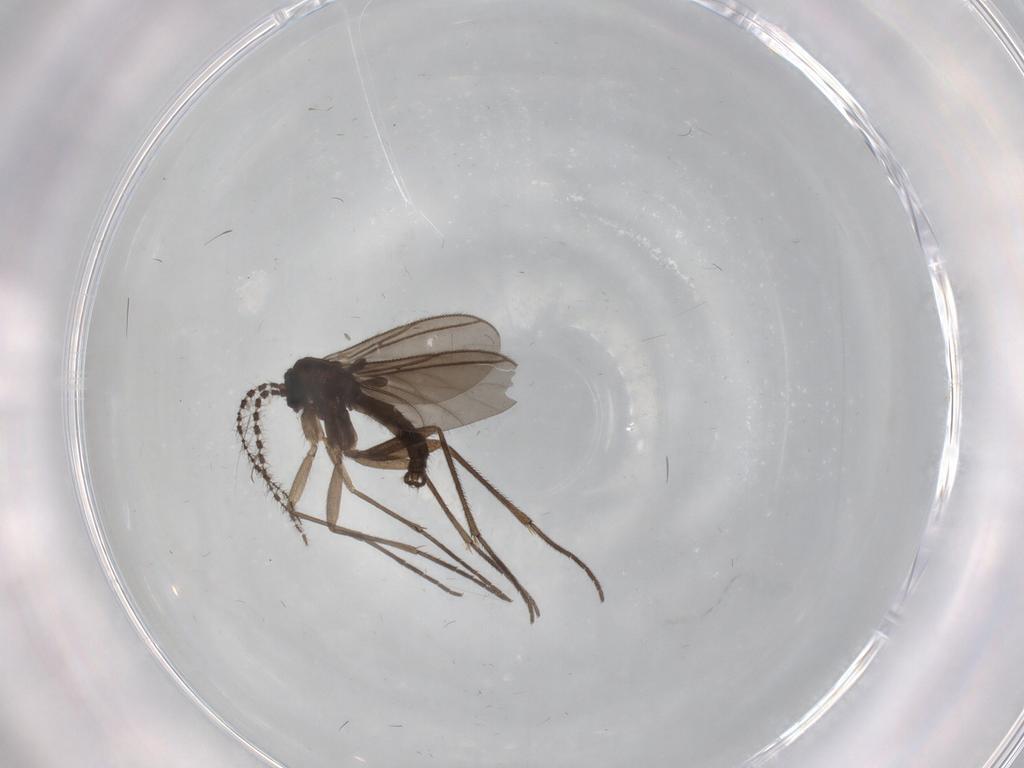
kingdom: Animalia
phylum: Arthropoda
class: Insecta
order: Diptera
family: Sciaridae
